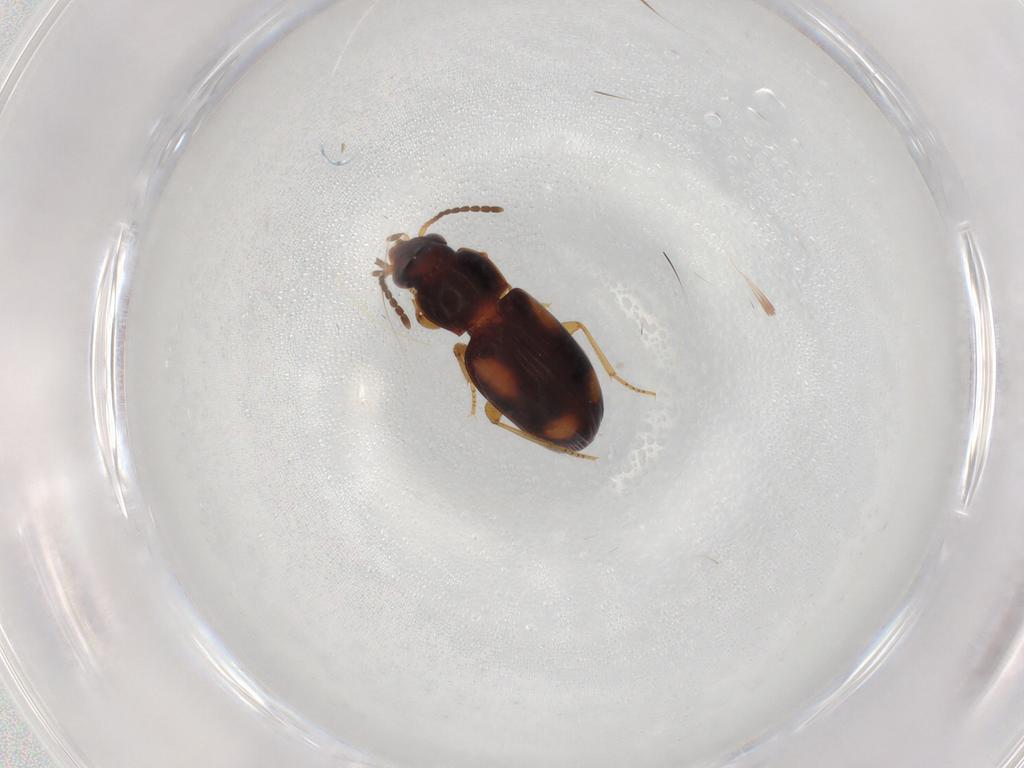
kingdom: Animalia
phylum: Arthropoda
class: Insecta
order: Coleoptera
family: Carabidae
